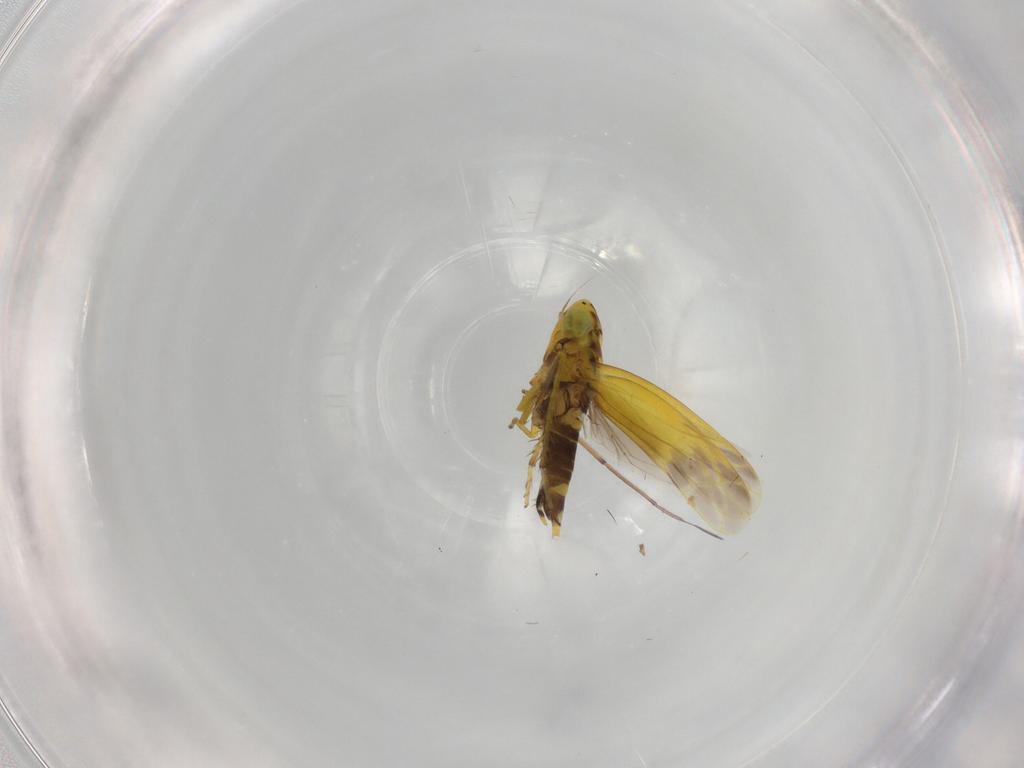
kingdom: Animalia
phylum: Arthropoda
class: Insecta
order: Hemiptera
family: Cicadellidae
